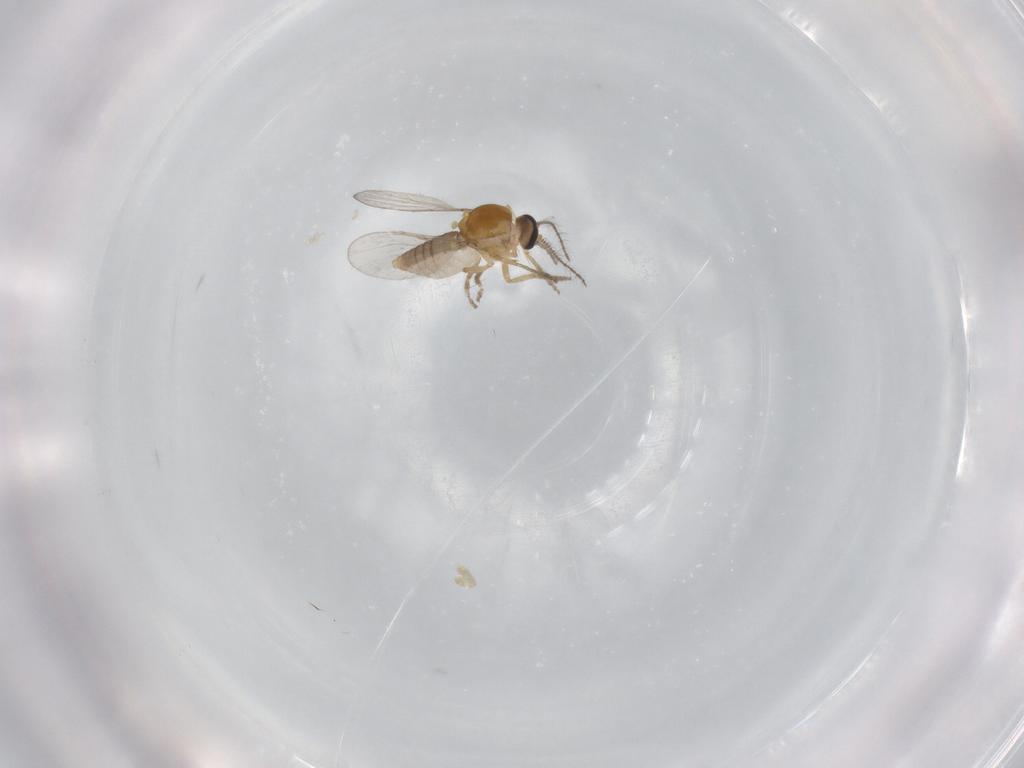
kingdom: Animalia
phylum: Arthropoda
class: Insecta
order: Diptera
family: Ceratopogonidae
